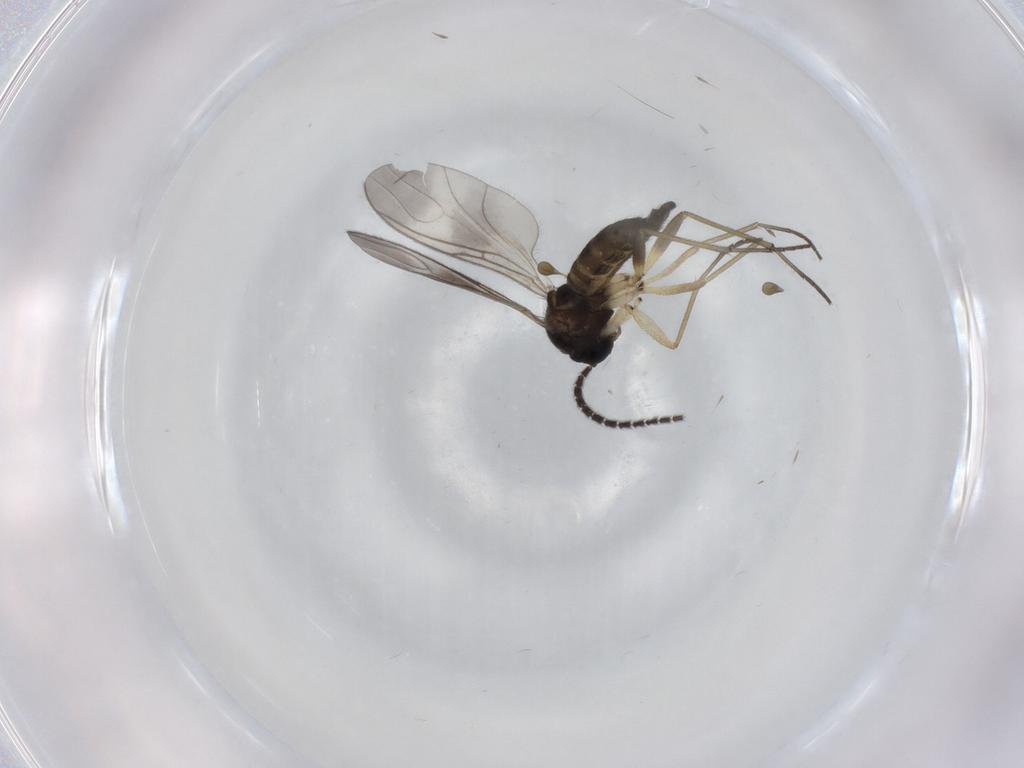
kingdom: Animalia
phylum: Arthropoda
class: Insecta
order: Diptera
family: Sciaridae
